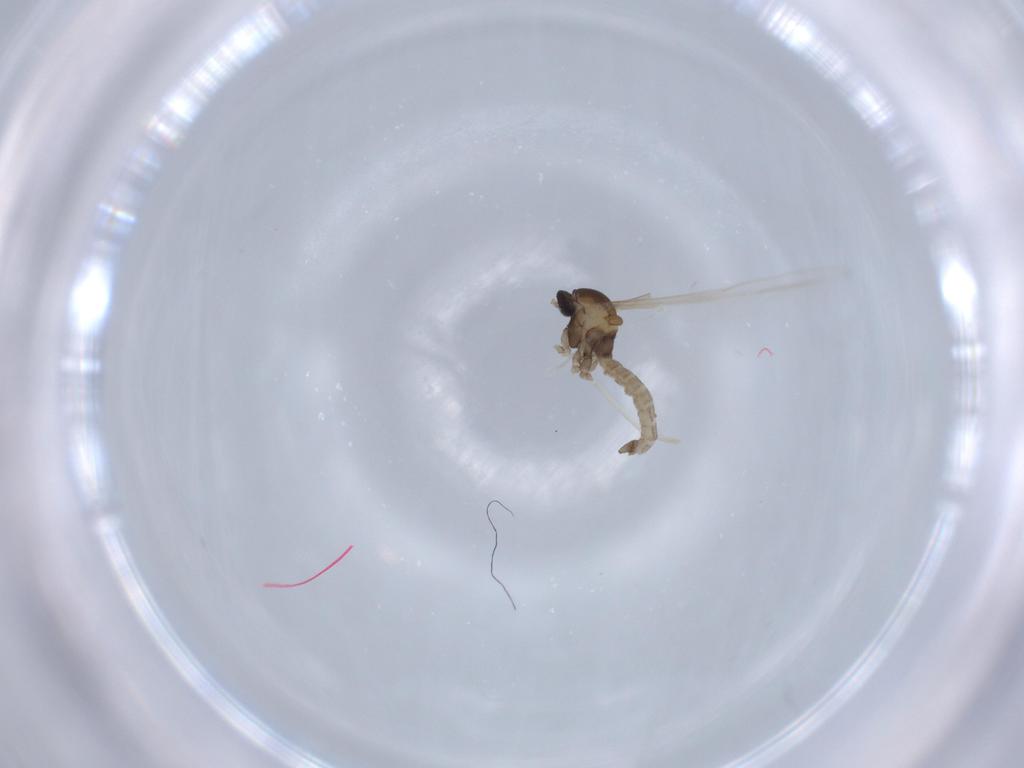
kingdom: Animalia
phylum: Arthropoda
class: Insecta
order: Diptera
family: Cecidomyiidae
